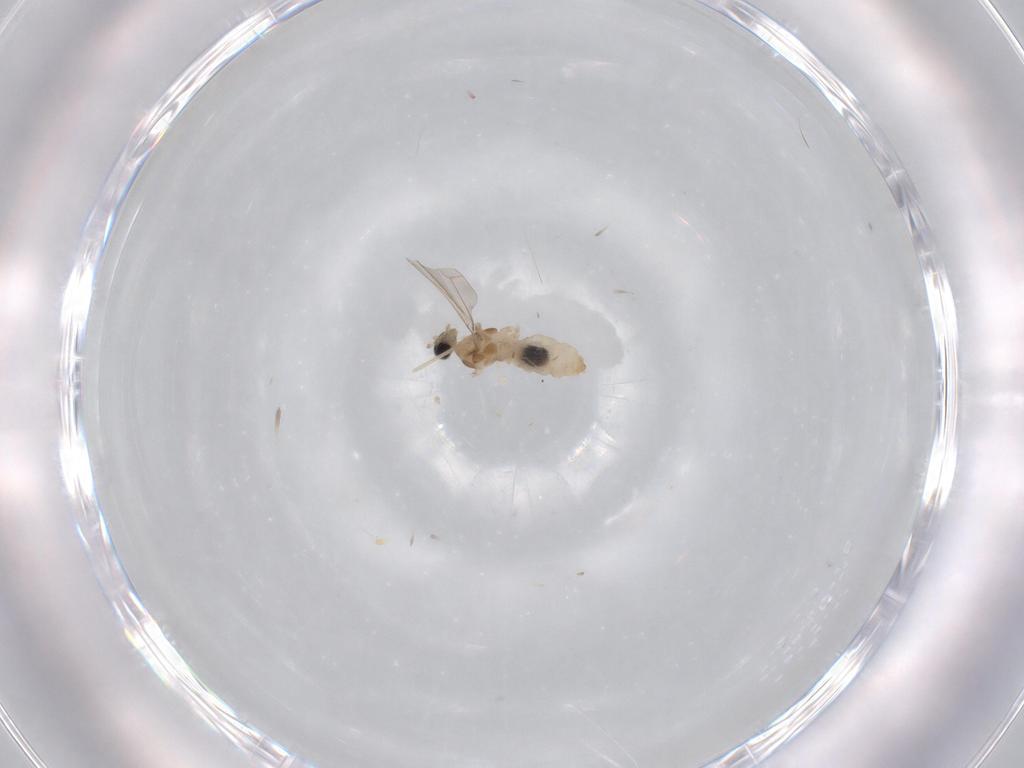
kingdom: Animalia
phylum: Arthropoda
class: Insecta
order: Diptera
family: Cecidomyiidae
